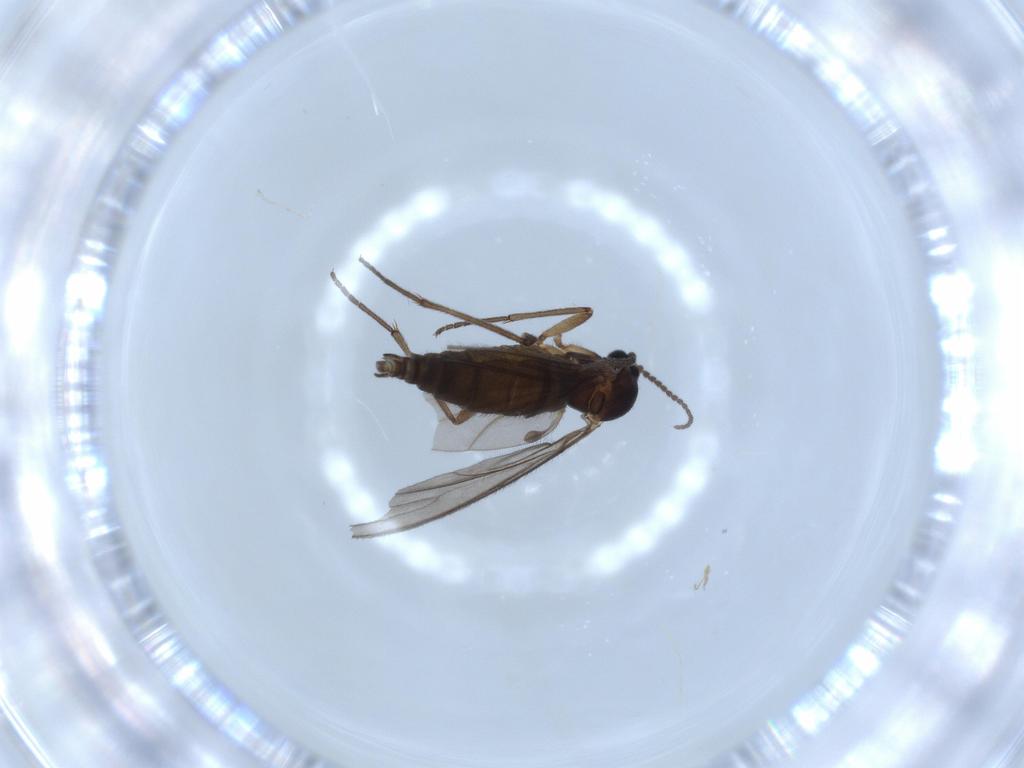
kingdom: Animalia
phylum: Arthropoda
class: Insecta
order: Diptera
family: Sciaridae
